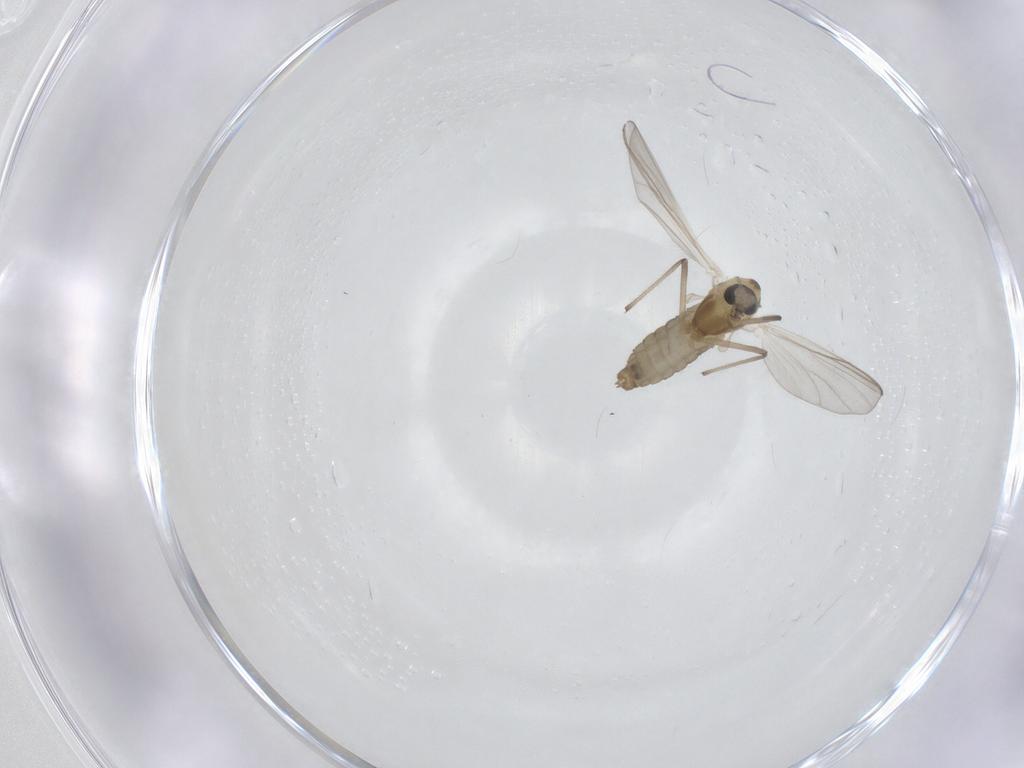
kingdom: Animalia
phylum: Arthropoda
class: Insecta
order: Diptera
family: Chironomidae
